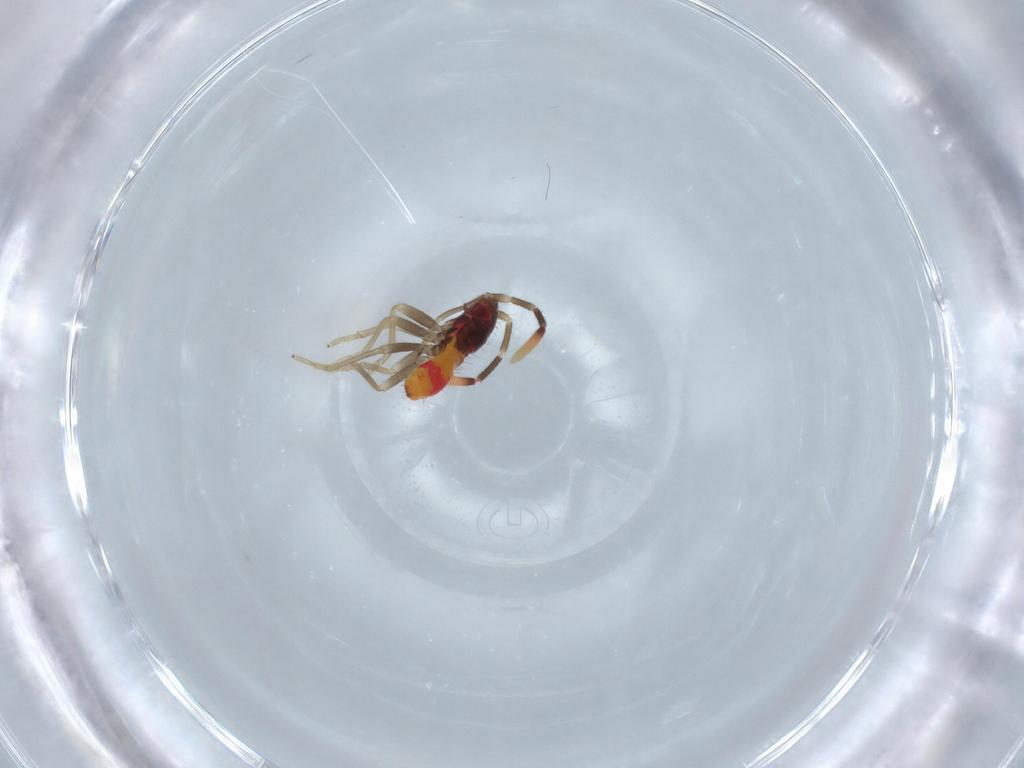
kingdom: Animalia
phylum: Arthropoda
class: Insecta
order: Hemiptera
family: Rhyparochromidae
